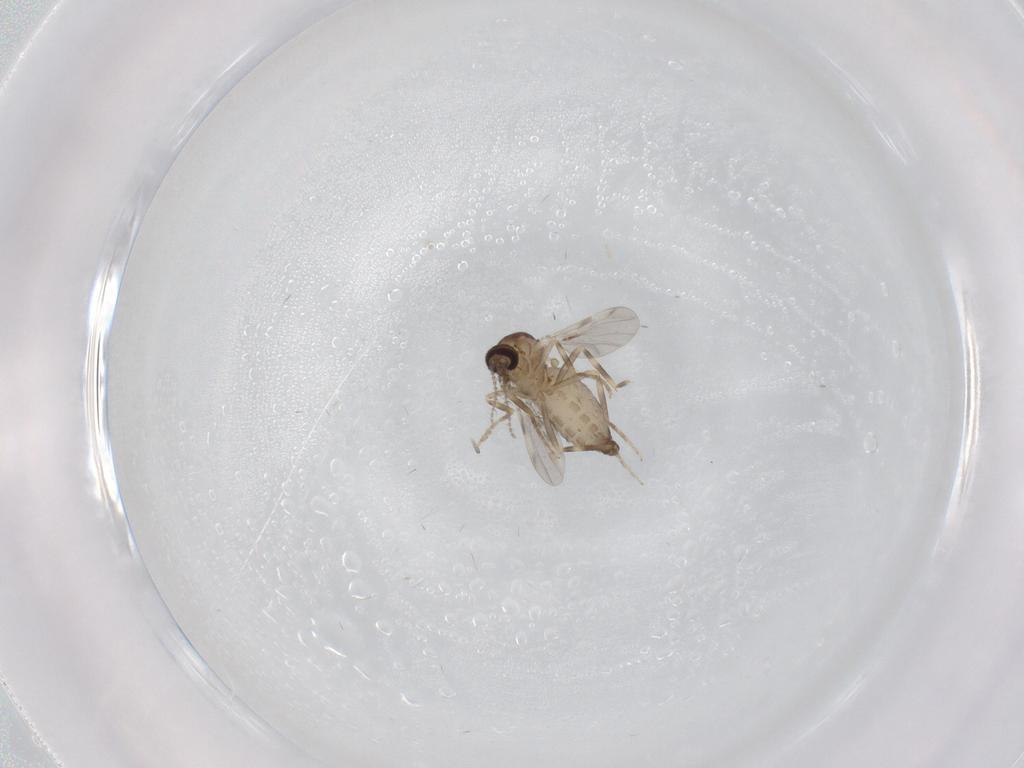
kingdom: Animalia
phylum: Arthropoda
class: Insecta
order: Diptera
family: Ceratopogonidae
